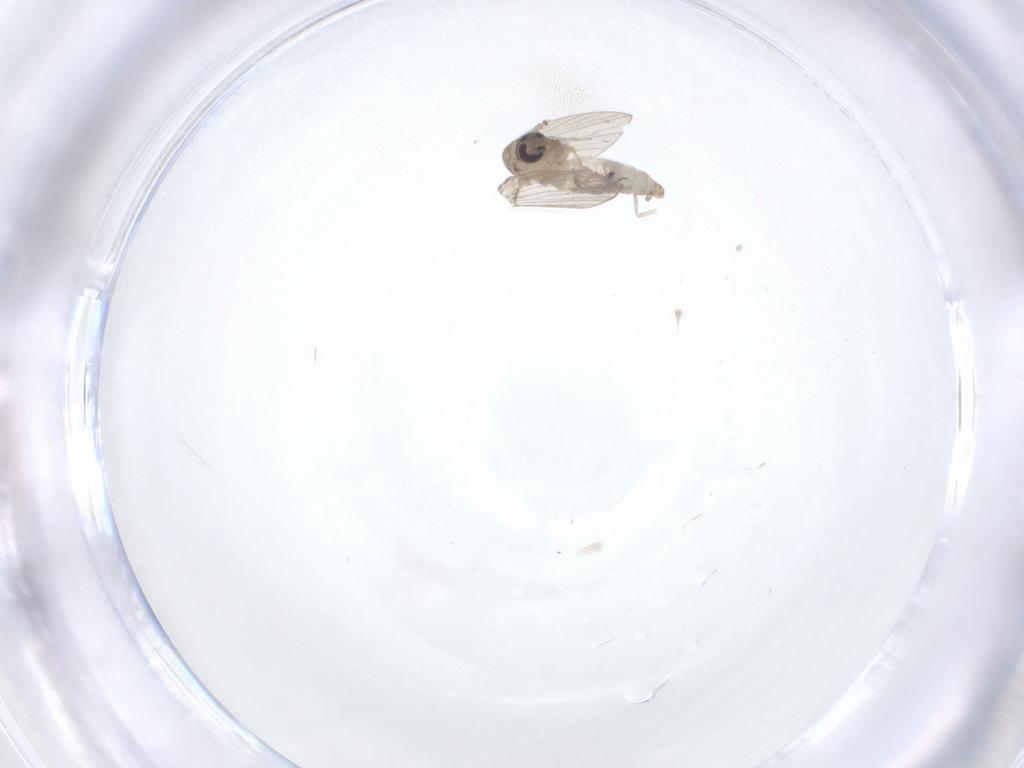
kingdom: Animalia
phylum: Arthropoda
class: Insecta
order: Diptera
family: Psychodidae
